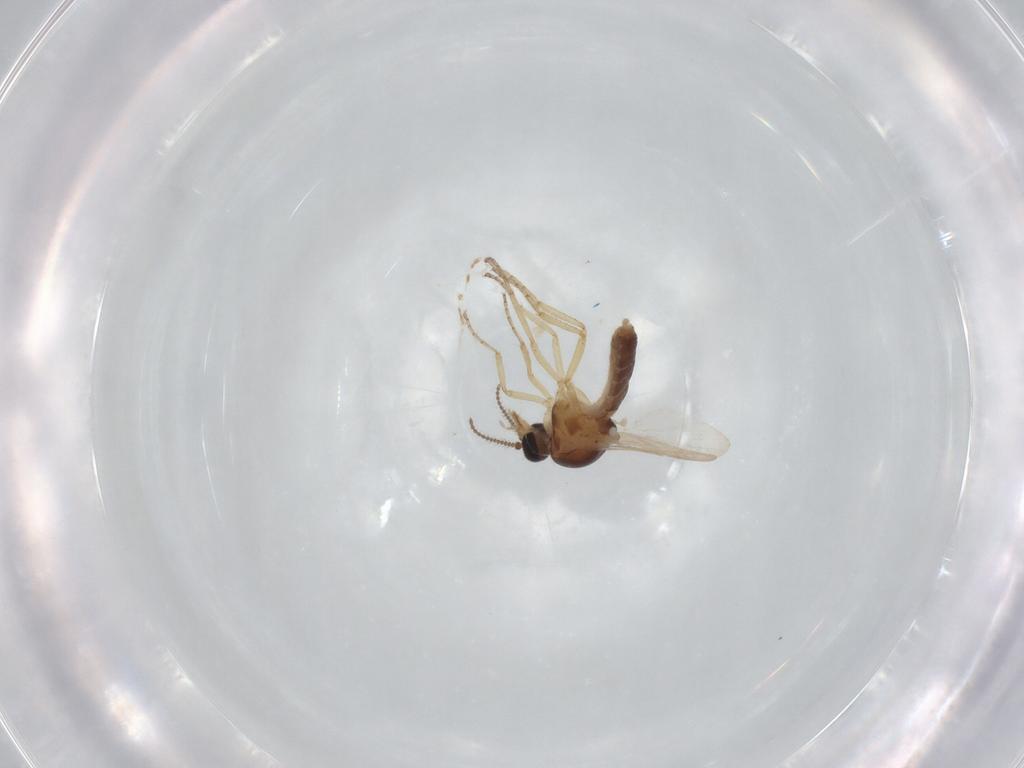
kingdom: Animalia
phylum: Arthropoda
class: Insecta
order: Diptera
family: Ceratopogonidae
